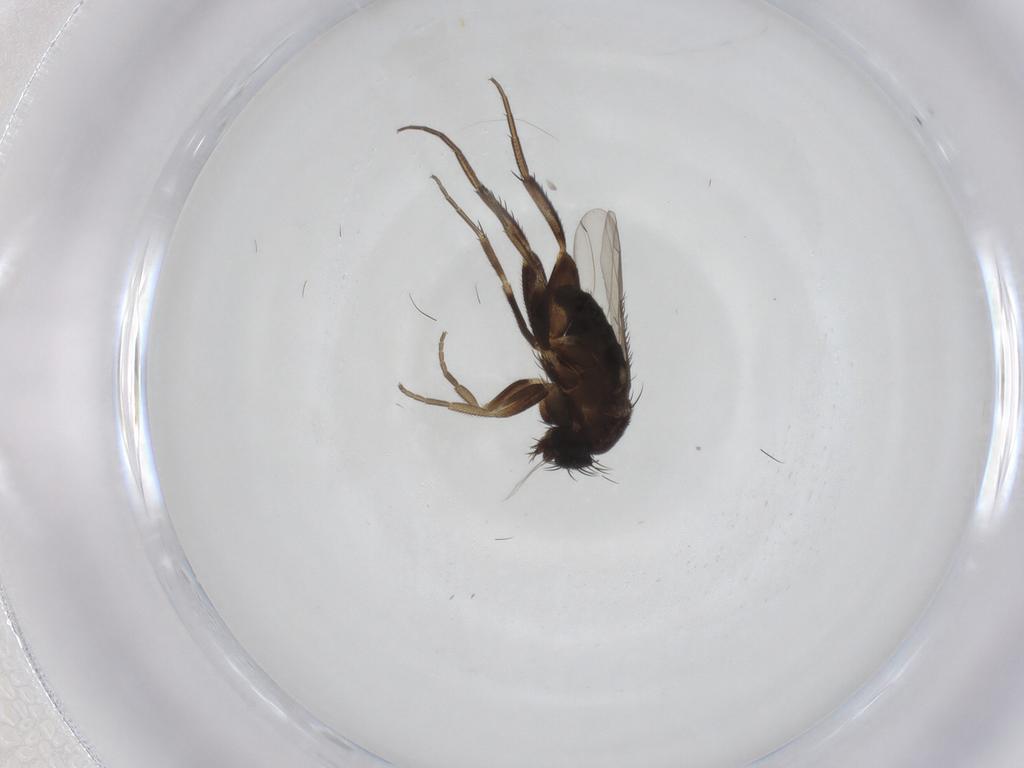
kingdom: Animalia
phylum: Arthropoda
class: Insecta
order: Diptera
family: Phoridae
